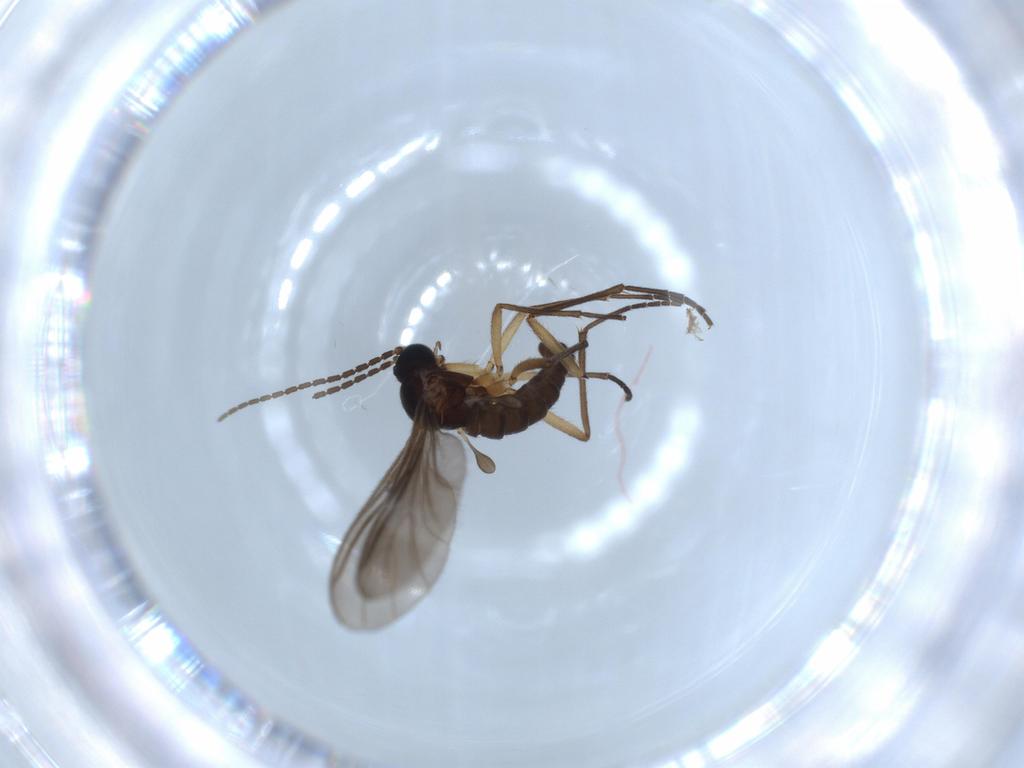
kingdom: Animalia
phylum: Arthropoda
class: Insecta
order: Diptera
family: Sciaridae
